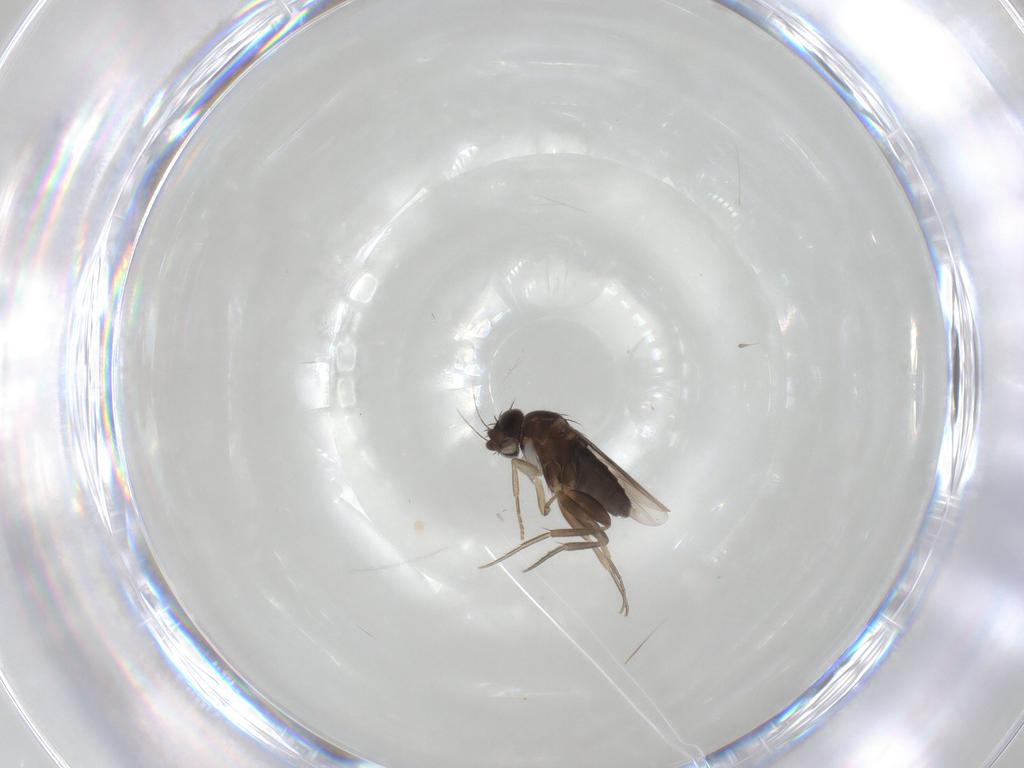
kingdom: Animalia
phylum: Arthropoda
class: Insecta
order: Diptera
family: Phoridae
